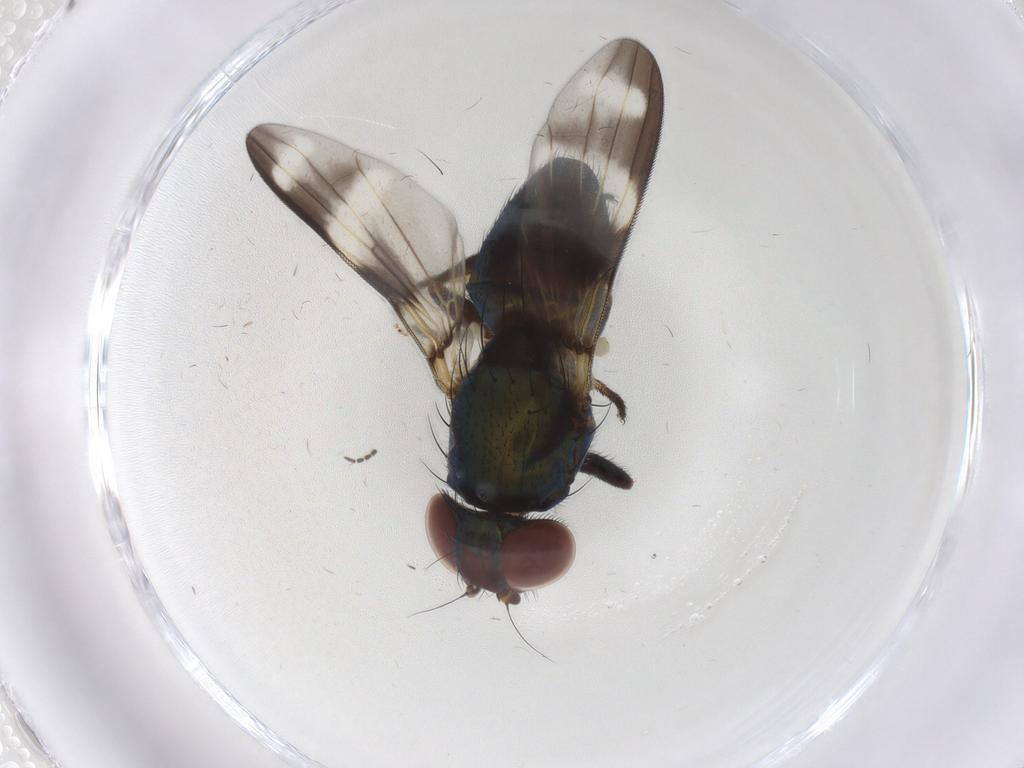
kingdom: Animalia
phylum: Arthropoda
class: Insecta
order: Diptera
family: Ulidiidae
